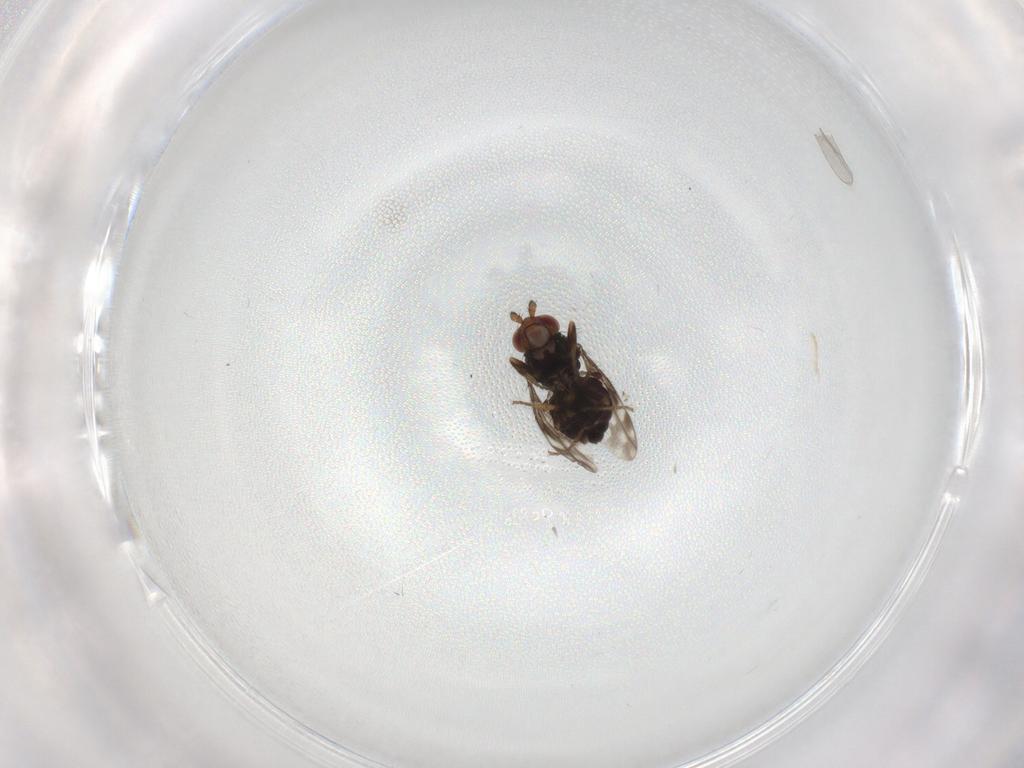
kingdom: Animalia
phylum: Arthropoda
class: Insecta
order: Diptera
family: Psychodidae
